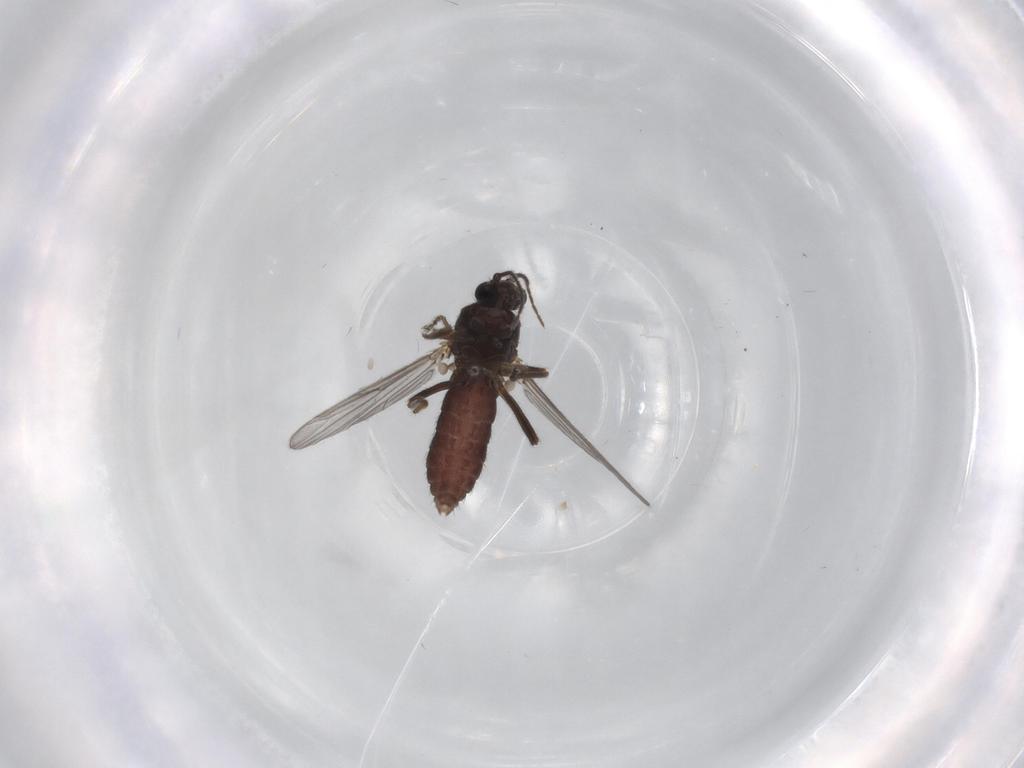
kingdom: Animalia
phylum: Arthropoda
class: Insecta
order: Diptera
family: Ceratopogonidae
